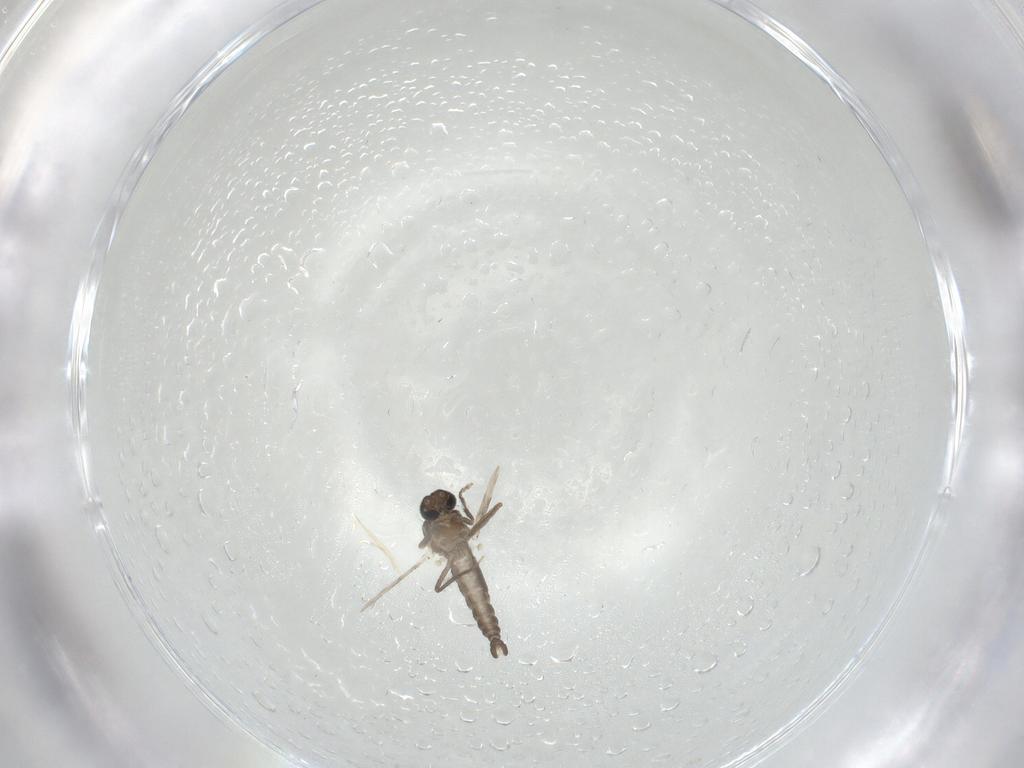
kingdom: Animalia
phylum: Arthropoda
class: Insecta
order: Diptera
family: Ceratopogonidae
